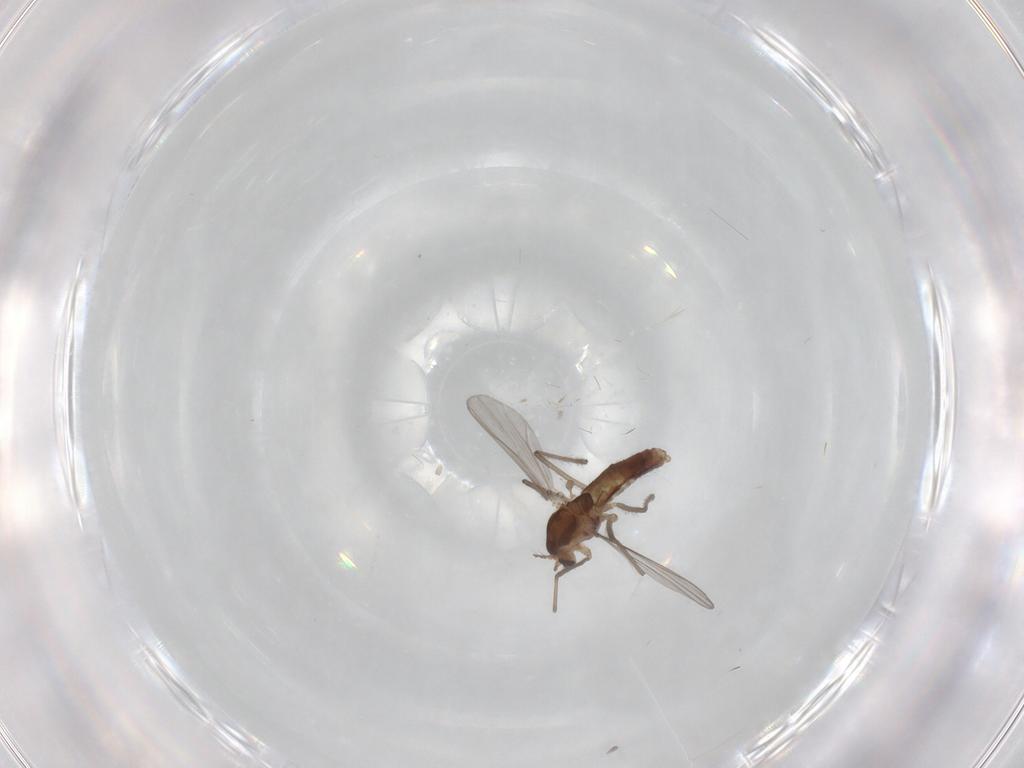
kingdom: Animalia
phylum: Arthropoda
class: Insecta
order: Diptera
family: Chironomidae
